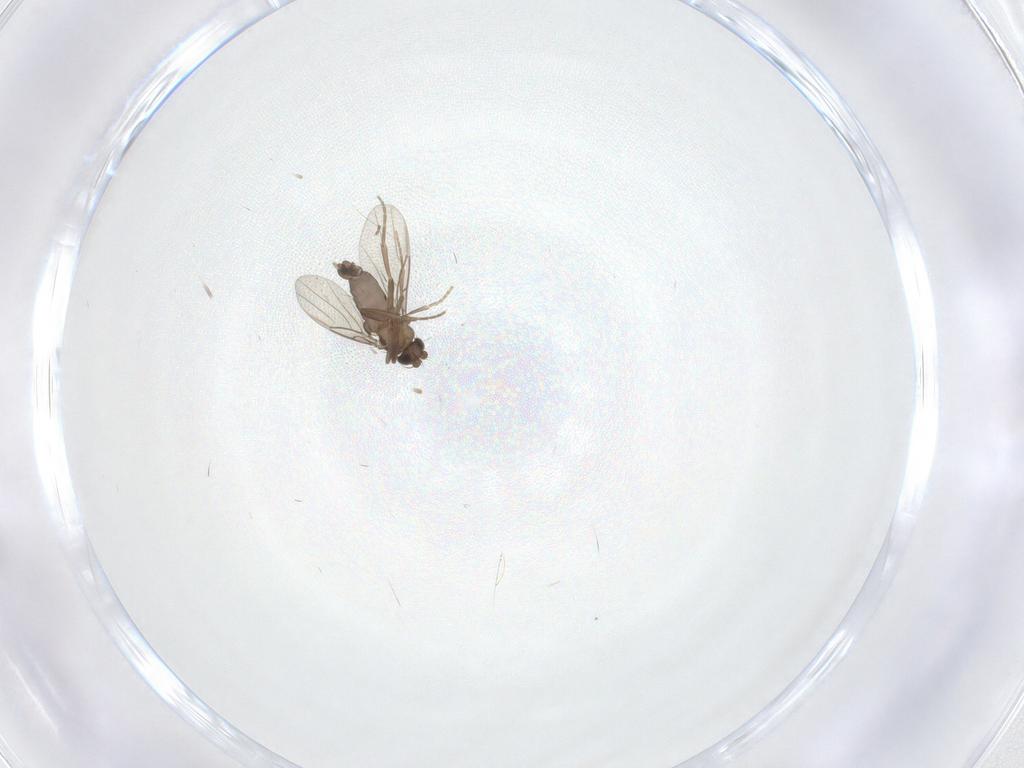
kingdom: Animalia
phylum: Arthropoda
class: Insecta
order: Diptera
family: Phoridae
